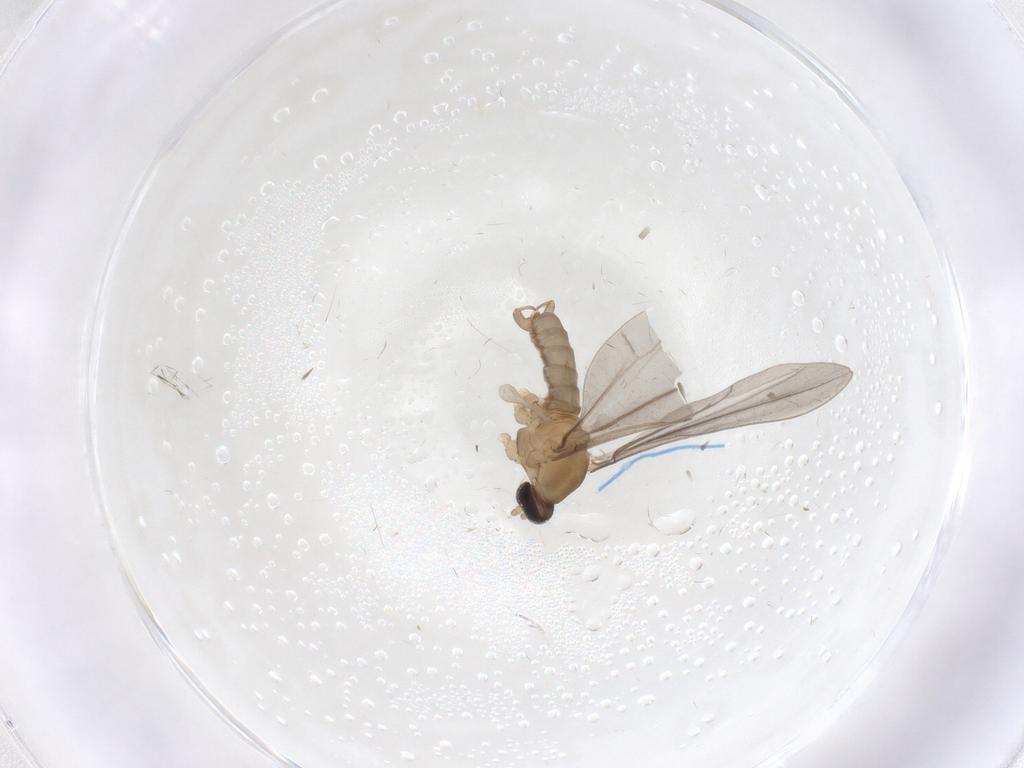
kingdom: Animalia
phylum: Arthropoda
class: Insecta
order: Diptera
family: Cecidomyiidae
